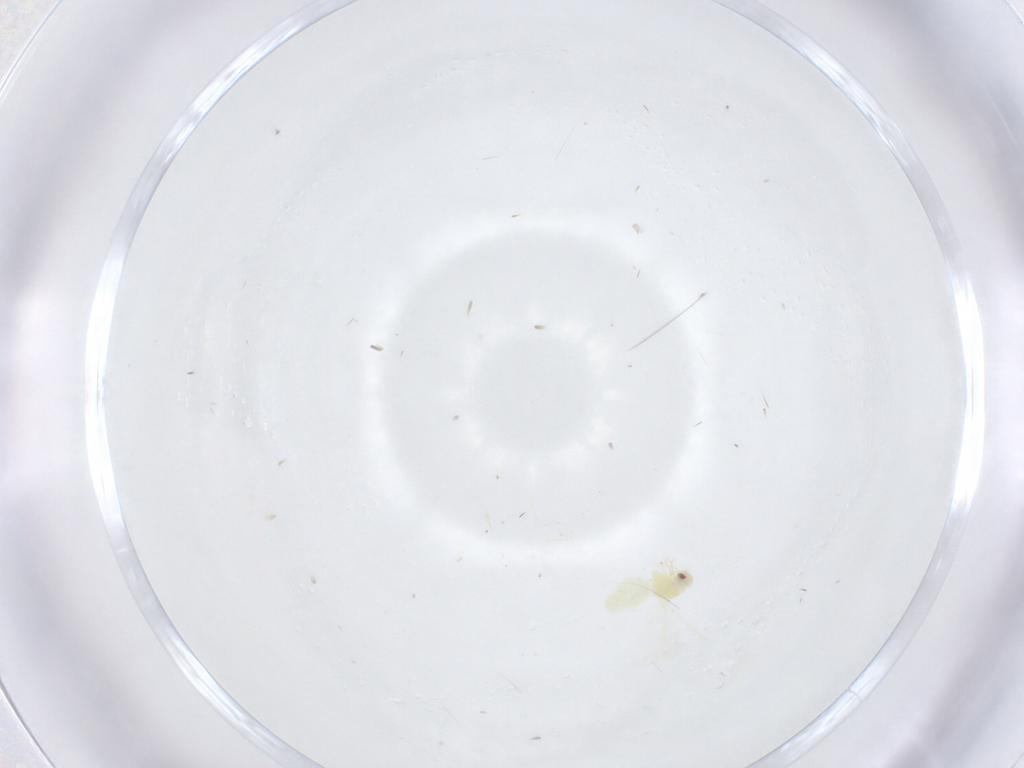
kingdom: Animalia
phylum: Arthropoda
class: Insecta
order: Hemiptera
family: Aleyrodidae
